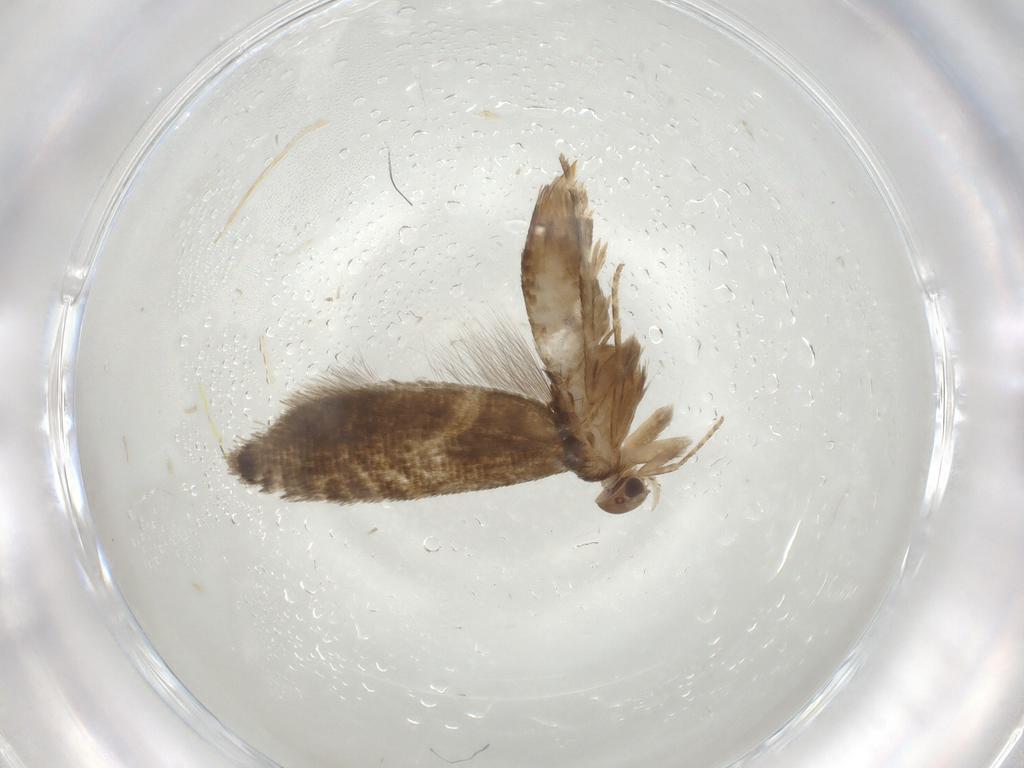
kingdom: Animalia
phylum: Arthropoda
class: Insecta
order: Lepidoptera
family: Glyphipterigidae
